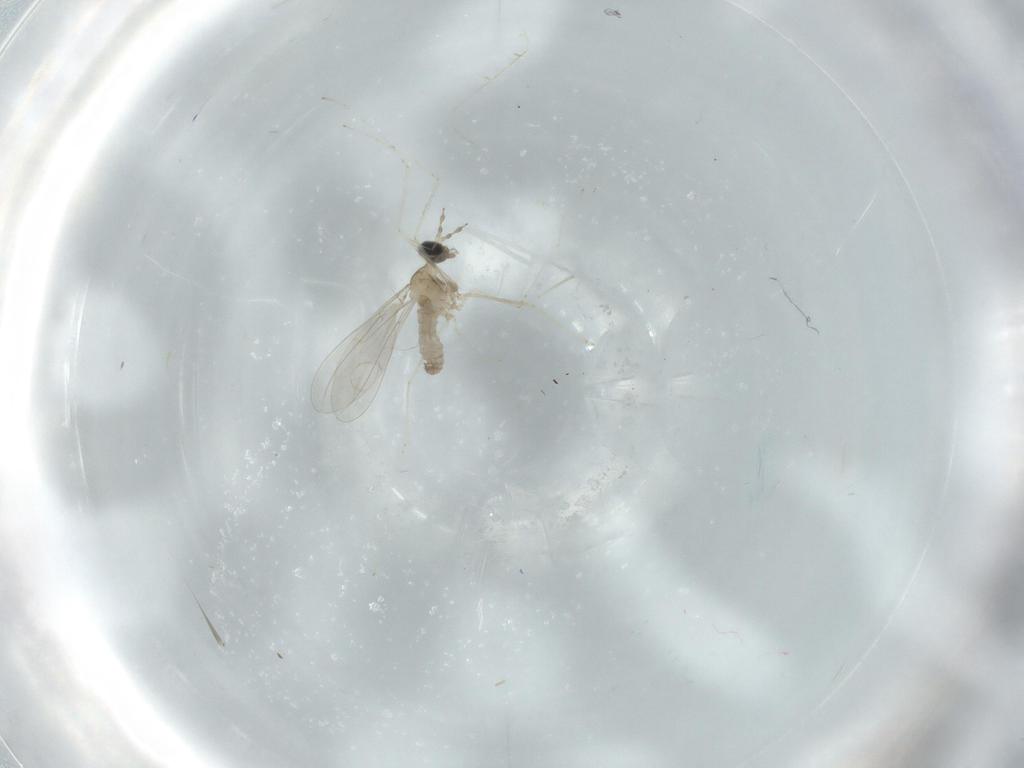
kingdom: Animalia
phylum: Arthropoda
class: Insecta
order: Diptera
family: Cecidomyiidae
